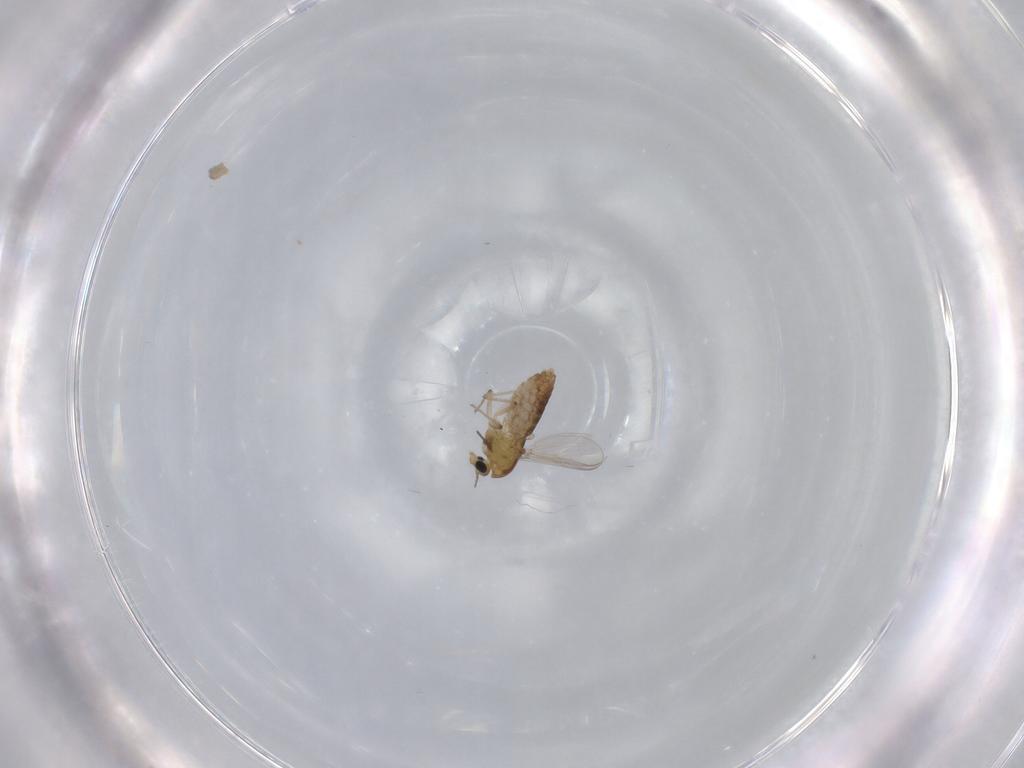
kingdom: Animalia
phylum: Arthropoda
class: Insecta
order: Diptera
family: Chironomidae
